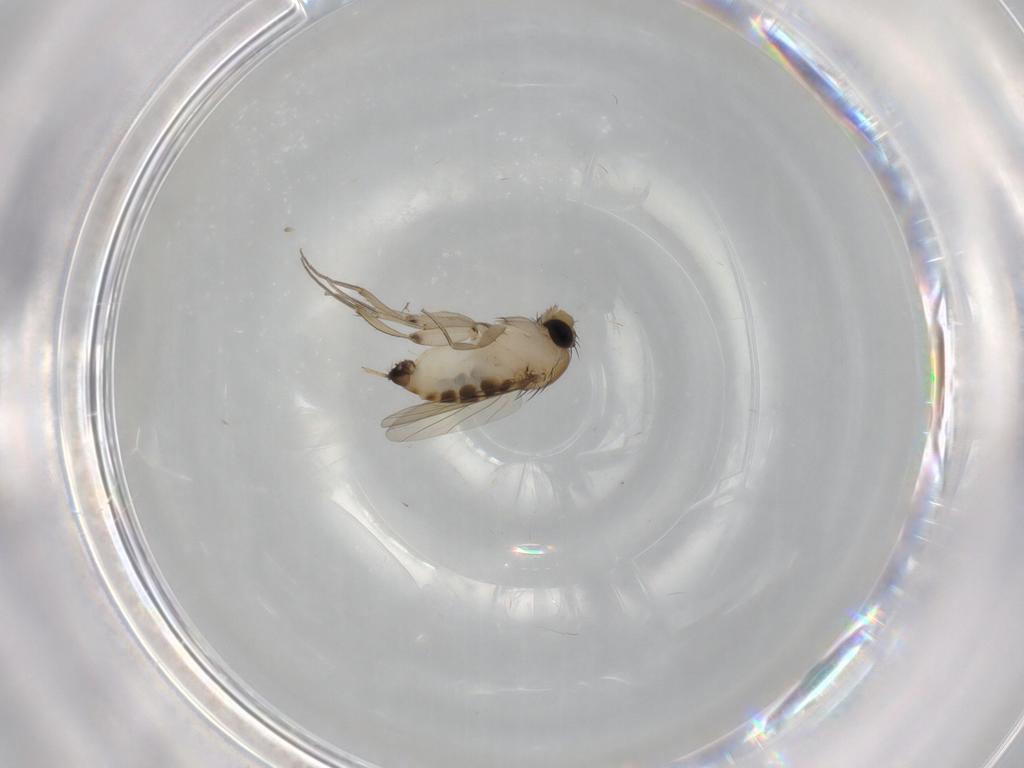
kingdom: Animalia
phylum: Arthropoda
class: Insecta
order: Diptera
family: Phoridae
